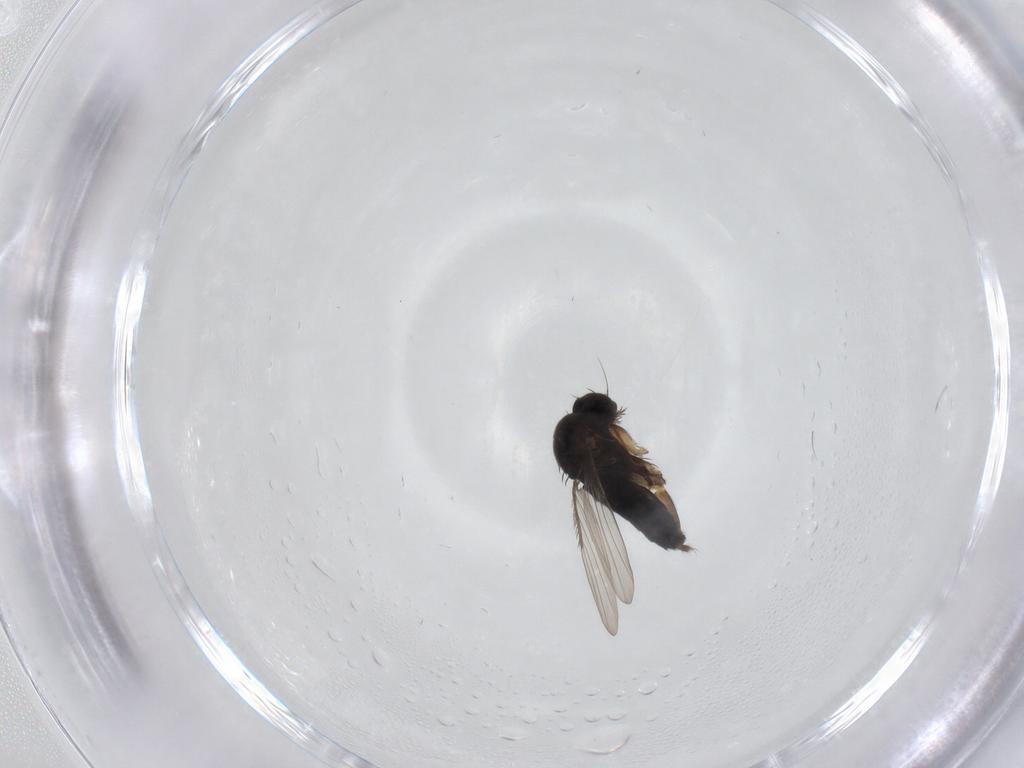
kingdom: Animalia
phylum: Arthropoda
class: Insecta
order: Diptera
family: Phoridae
